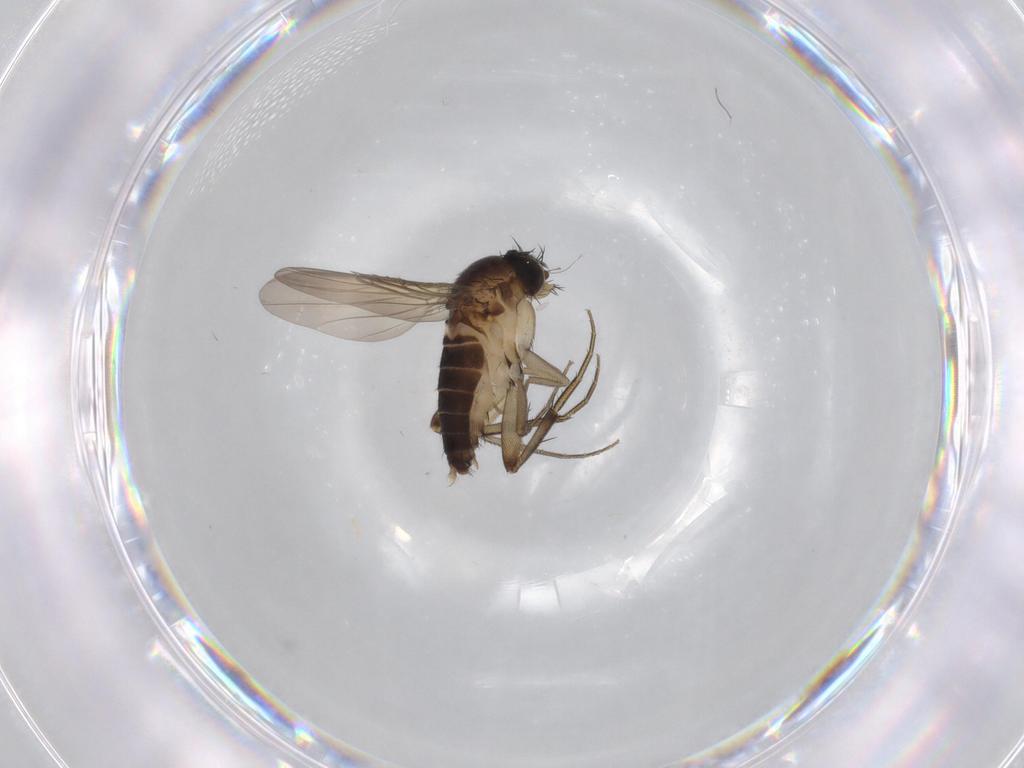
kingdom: Animalia
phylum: Arthropoda
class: Insecta
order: Diptera
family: Phoridae
